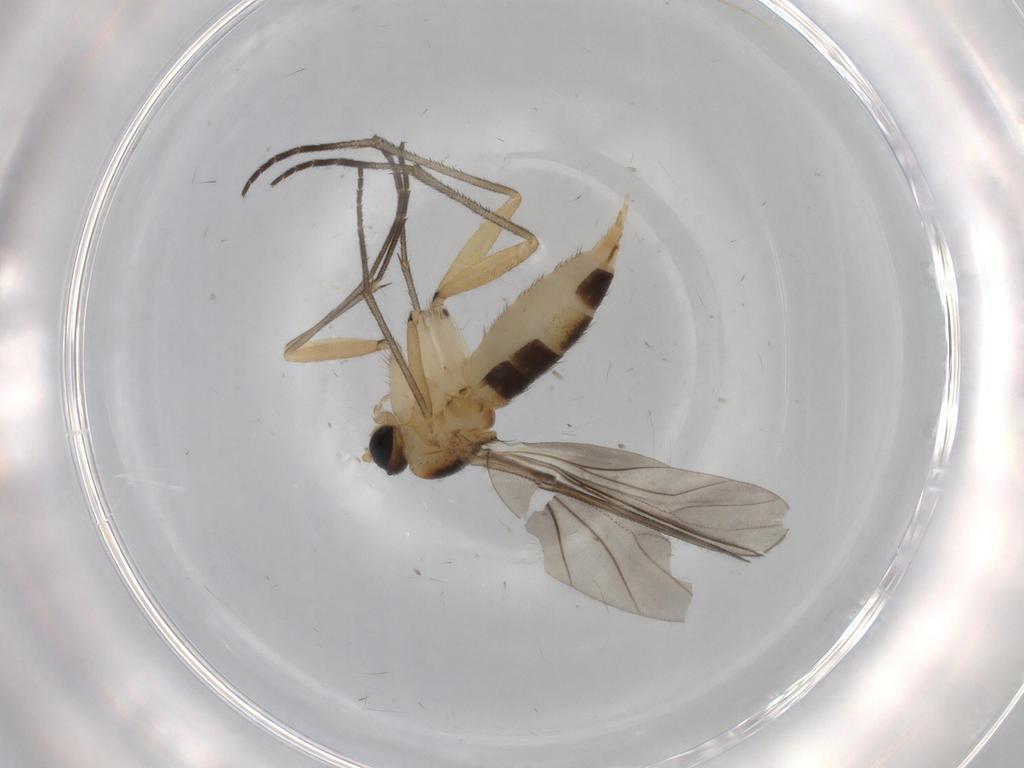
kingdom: Animalia
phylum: Arthropoda
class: Insecta
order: Diptera
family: Sciaridae
